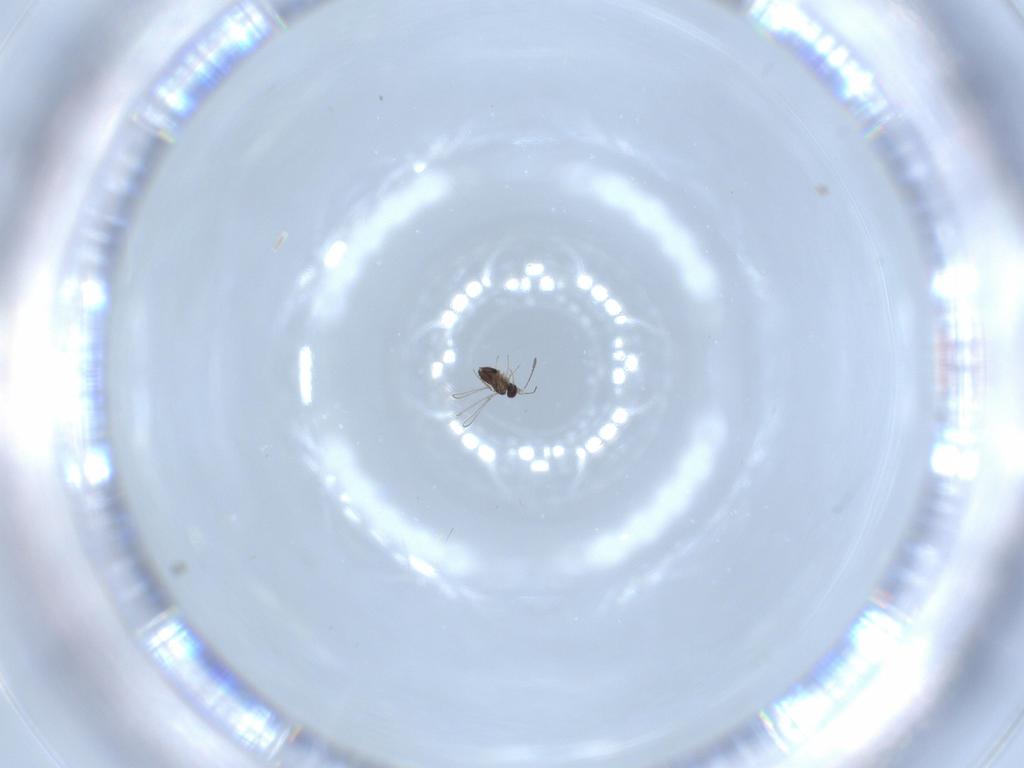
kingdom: Animalia
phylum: Arthropoda
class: Insecta
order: Hymenoptera
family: Mymaridae
